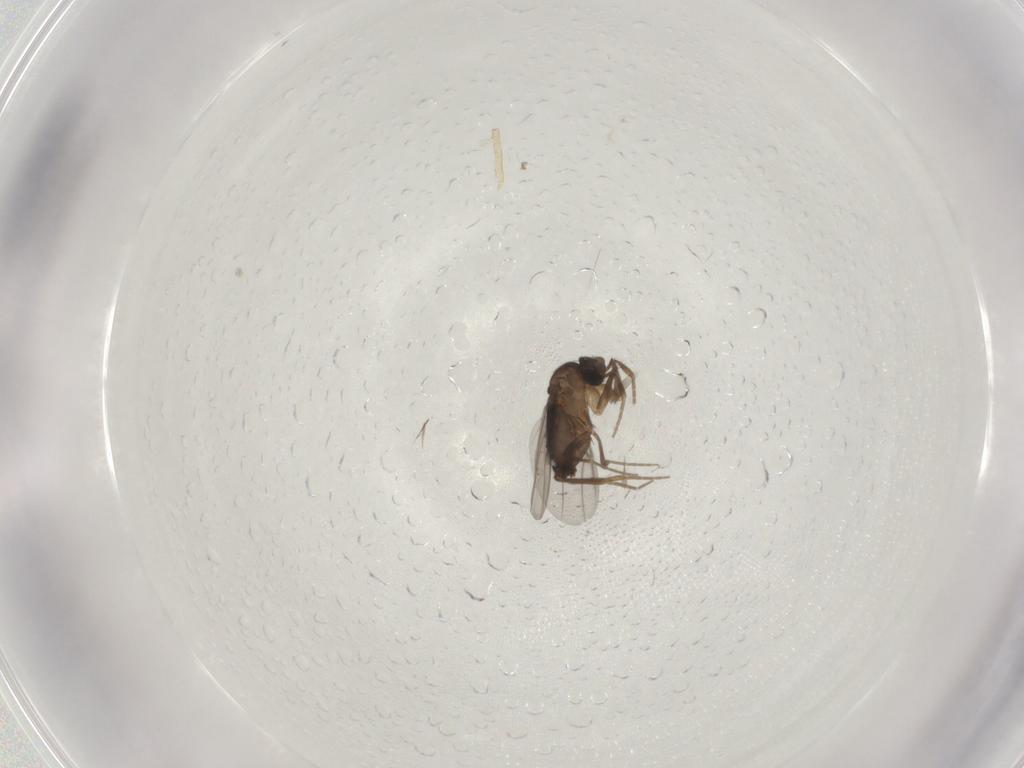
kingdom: Animalia
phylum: Arthropoda
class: Insecta
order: Diptera
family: Phoridae
